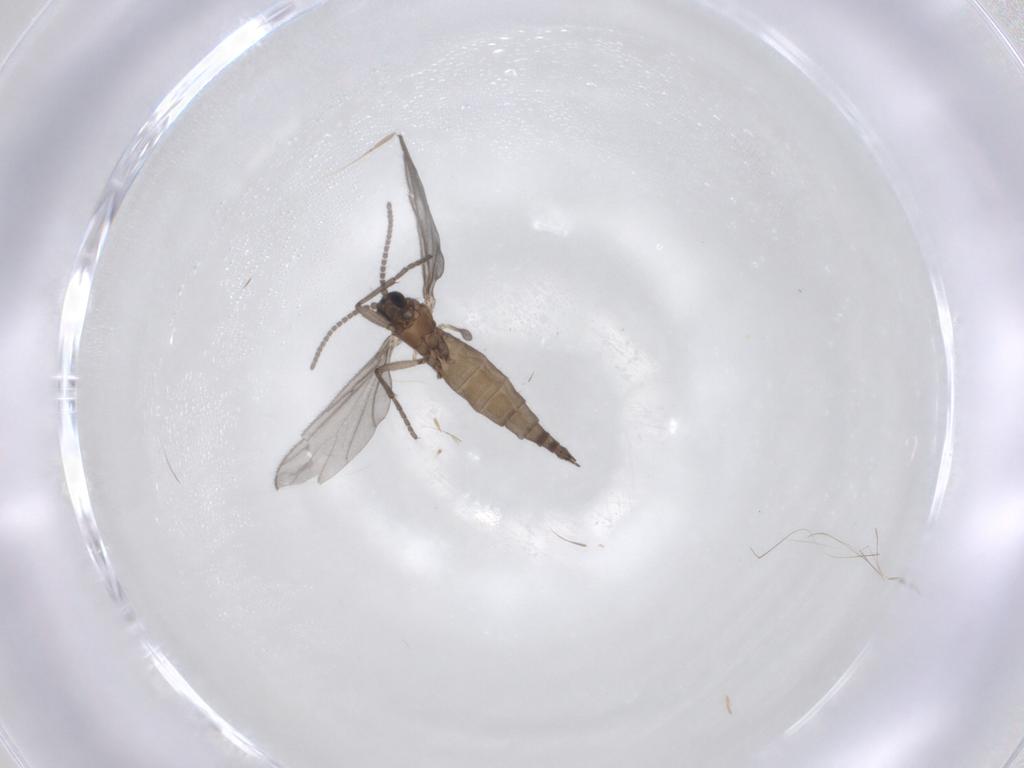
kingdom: Animalia
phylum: Arthropoda
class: Insecta
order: Diptera
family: Sciaridae
